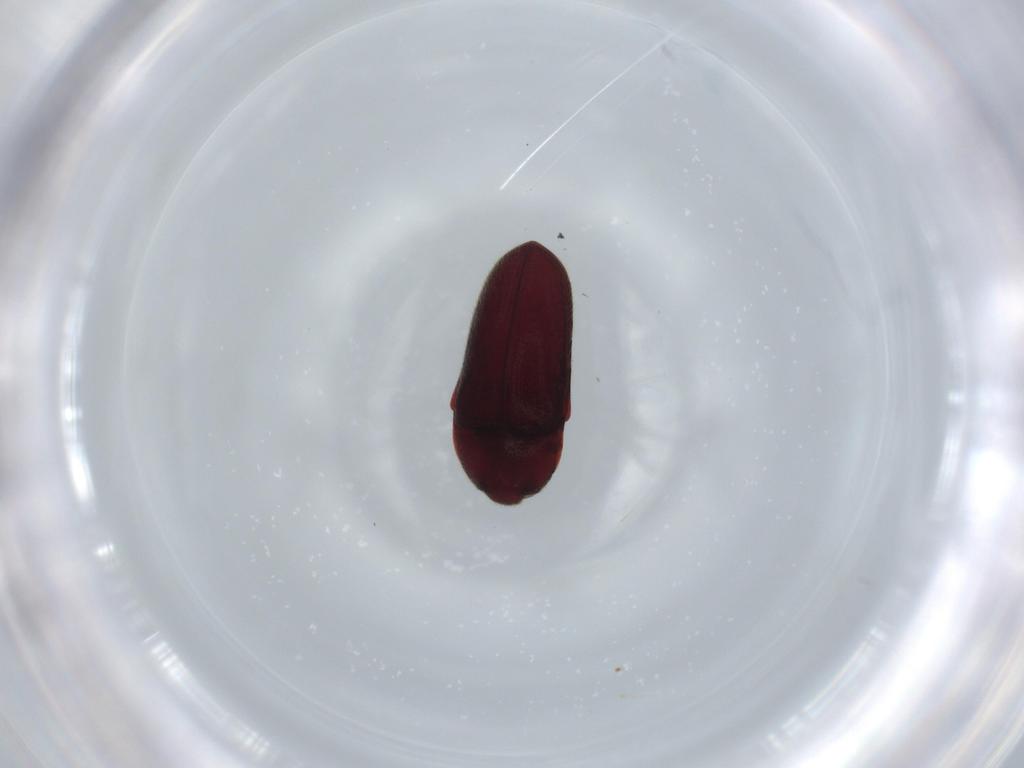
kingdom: Animalia
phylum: Arthropoda
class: Insecta
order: Coleoptera
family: Throscidae
